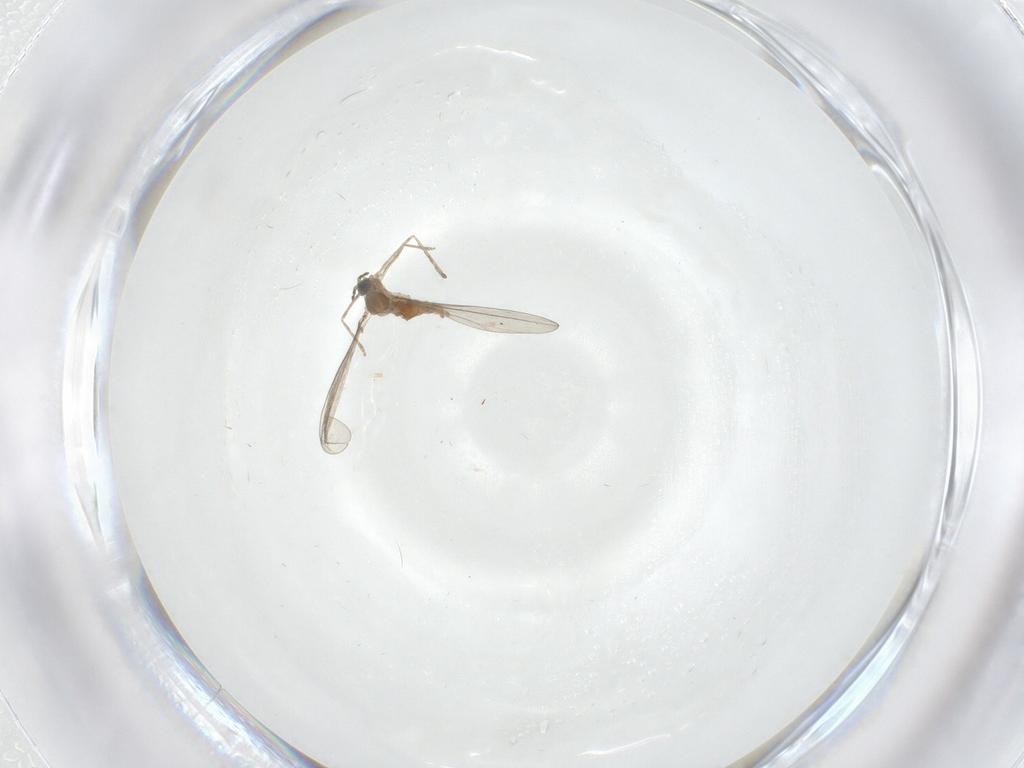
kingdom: Animalia
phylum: Arthropoda
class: Insecta
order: Diptera
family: Cecidomyiidae
